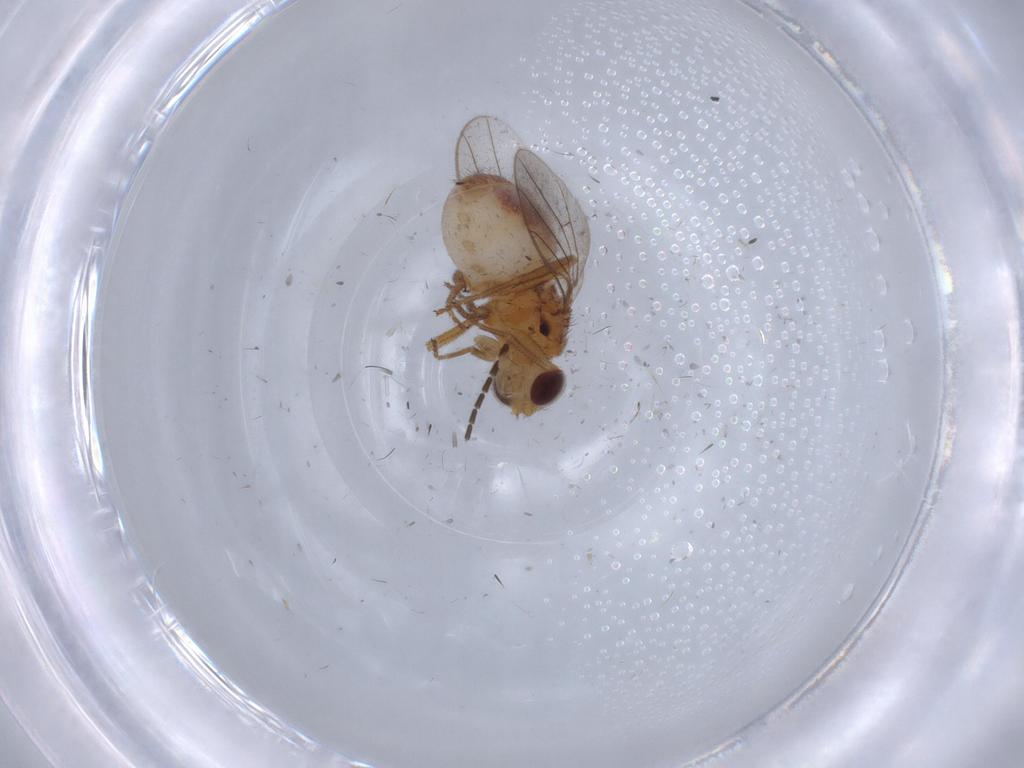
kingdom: Animalia
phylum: Arthropoda
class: Insecta
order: Diptera
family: Chloropidae
